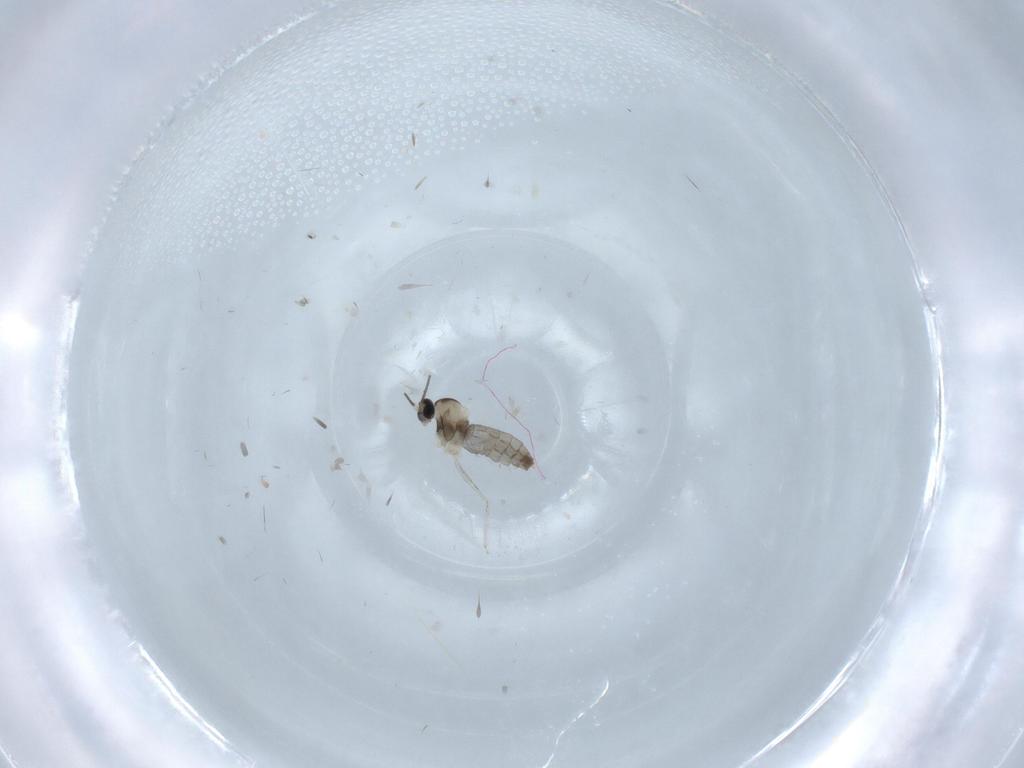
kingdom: Animalia
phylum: Arthropoda
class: Insecta
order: Diptera
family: Cecidomyiidae
